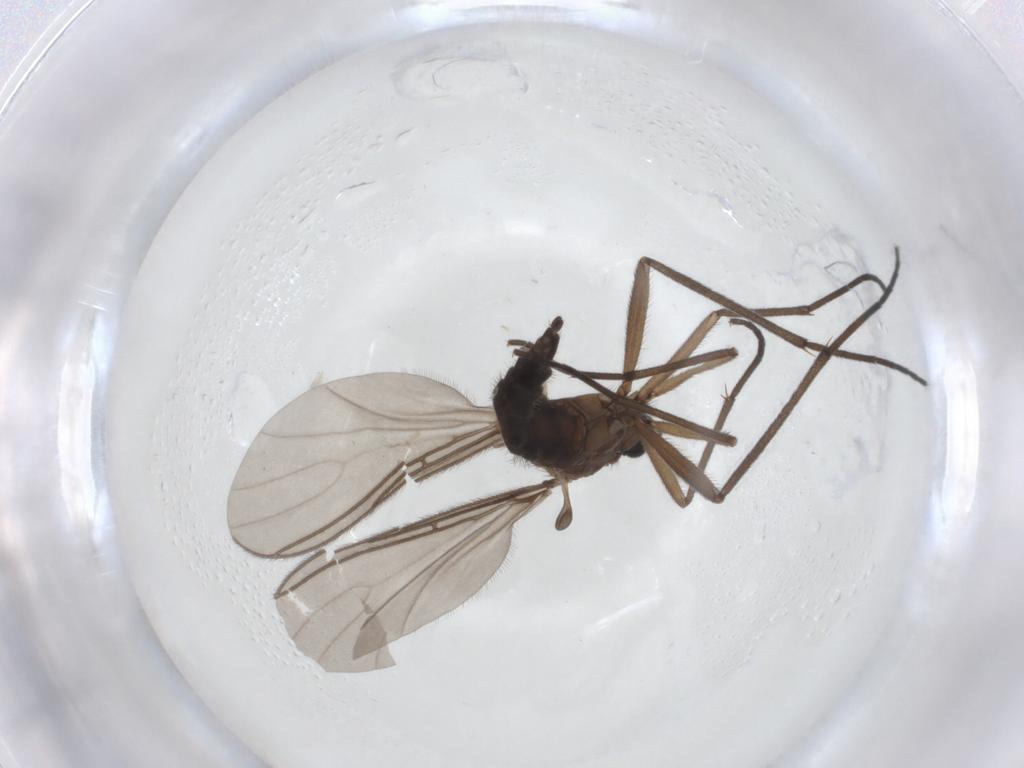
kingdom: Animalia
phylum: Arthropoda
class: Insecta
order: Diptera
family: Sciaridae
